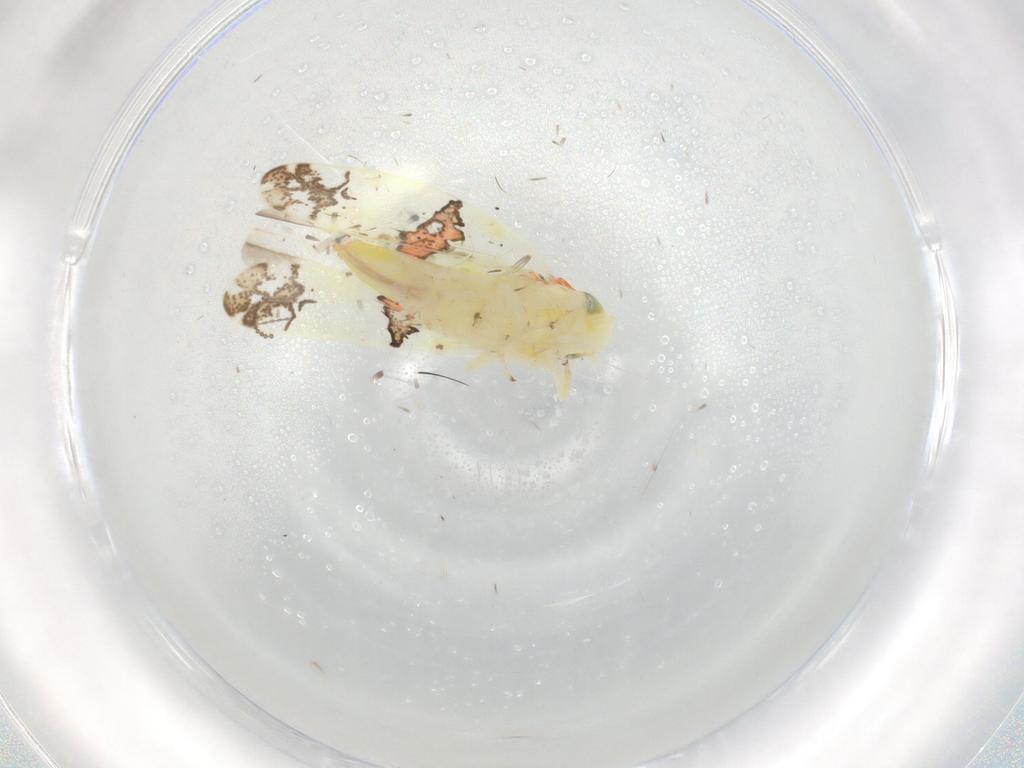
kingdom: Animalia
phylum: Arthropoda
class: Insecta
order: Hemiptera
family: Cicadellidae
